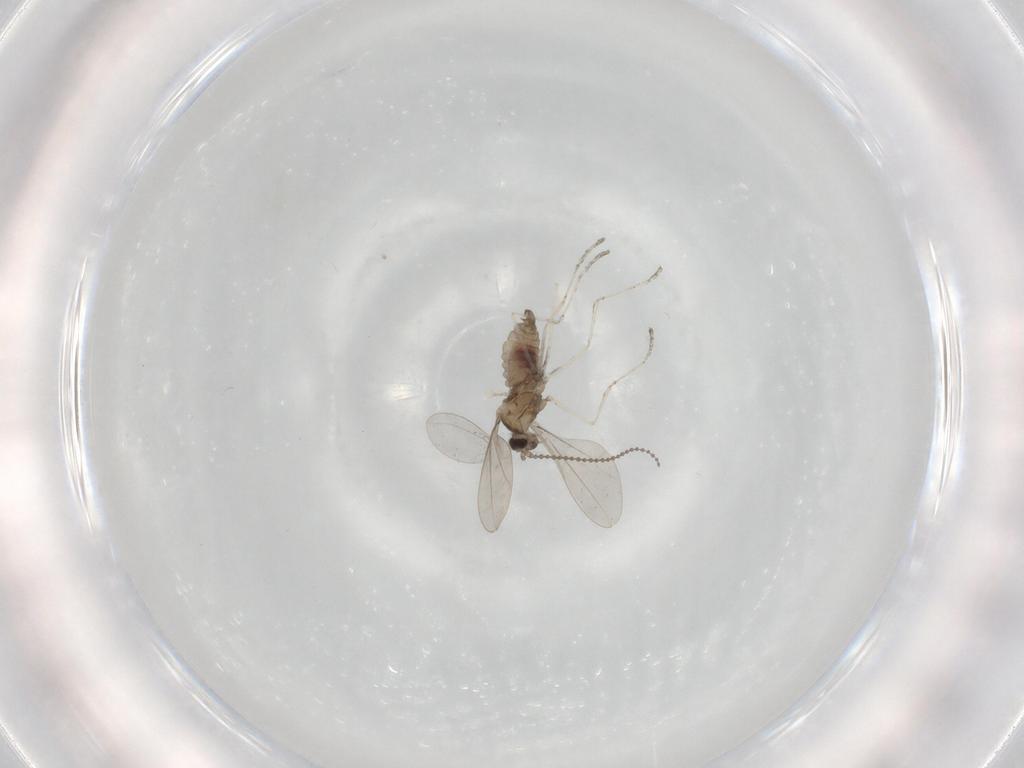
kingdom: Animalia
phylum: Arthropoda
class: Insecta
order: Diptera
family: Cecidomyiidae
